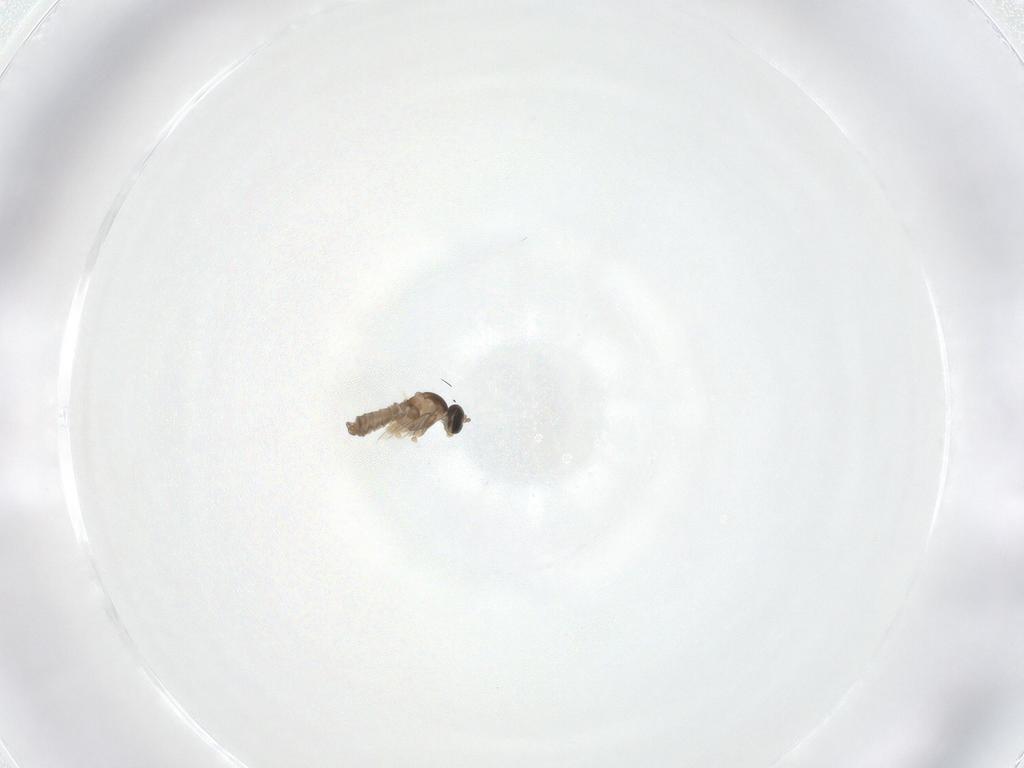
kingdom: Animalia
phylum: Arthropoda
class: Insecta
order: Diptera
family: Cecidomyiidae
